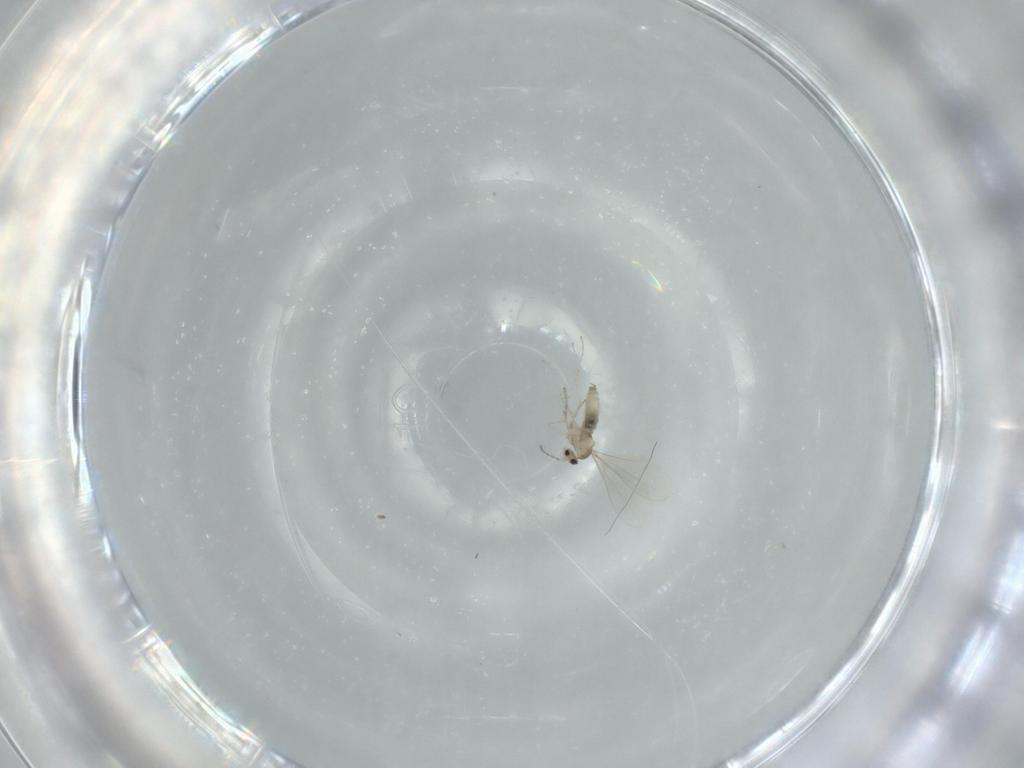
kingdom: Animalia
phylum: Arthropoda
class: Insecta
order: Diptera
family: Cecidomyiidae
